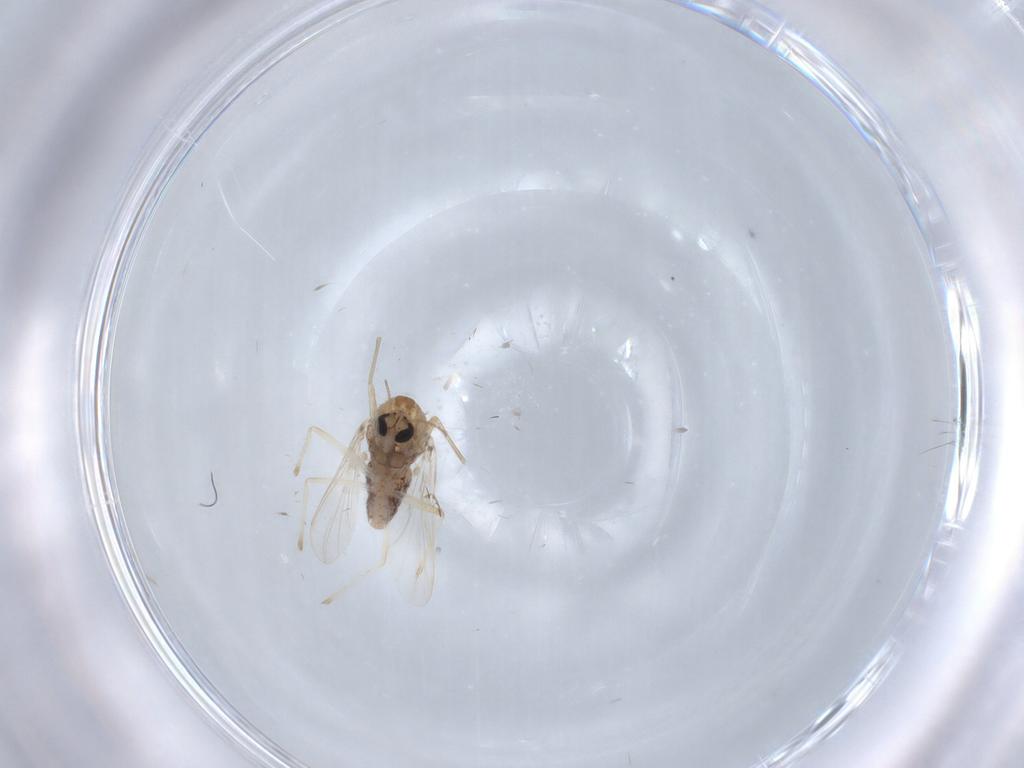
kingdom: Animalia
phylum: Arthropoda
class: Insecta
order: Diptera
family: Chironomidae
